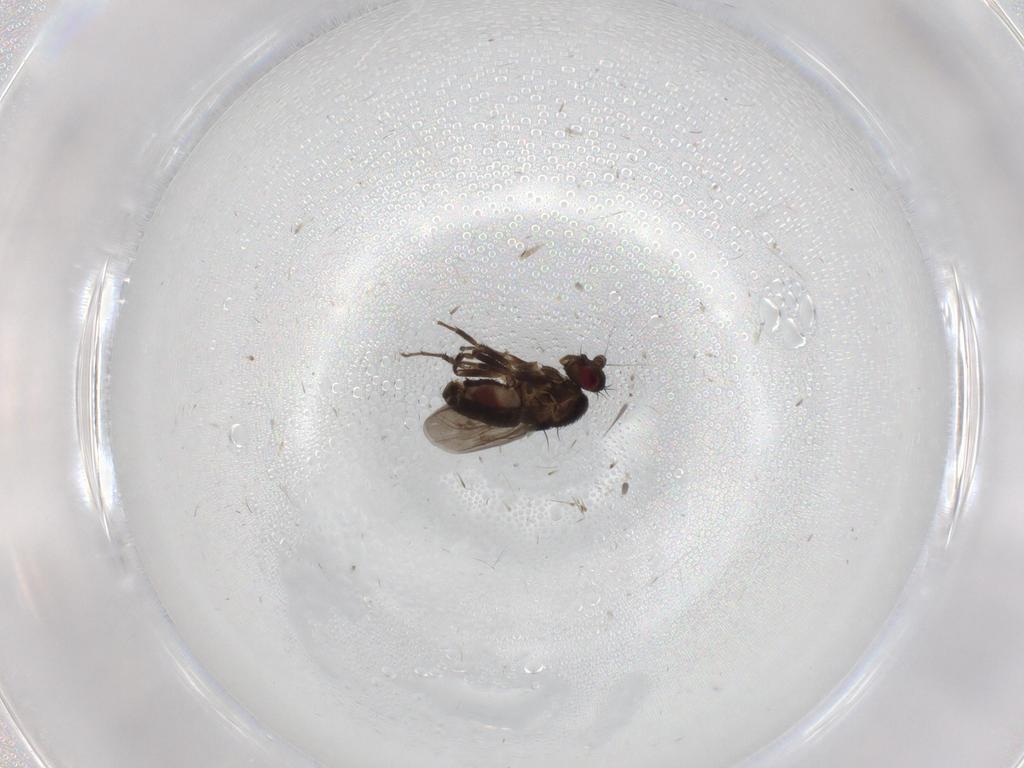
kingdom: Animalia
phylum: Arthropoda
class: Insecta
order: Diptera
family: Sphaeroceridae
